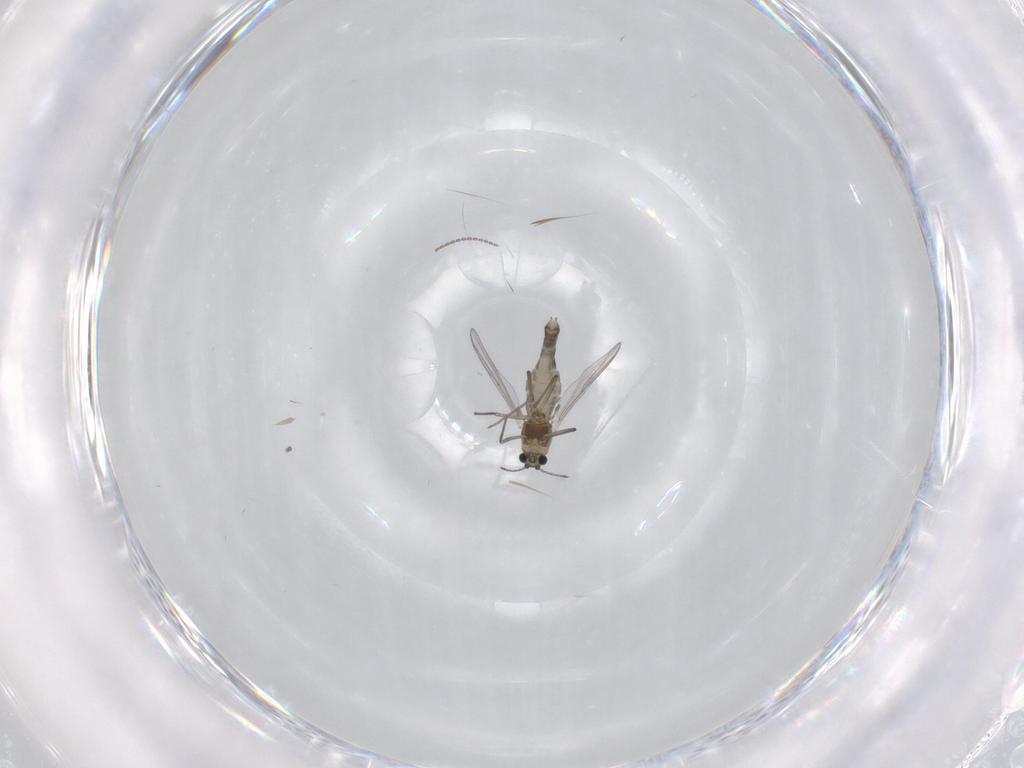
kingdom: Animalia
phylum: Arthropoda
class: Insecta
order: Diptera
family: Chironomidae
